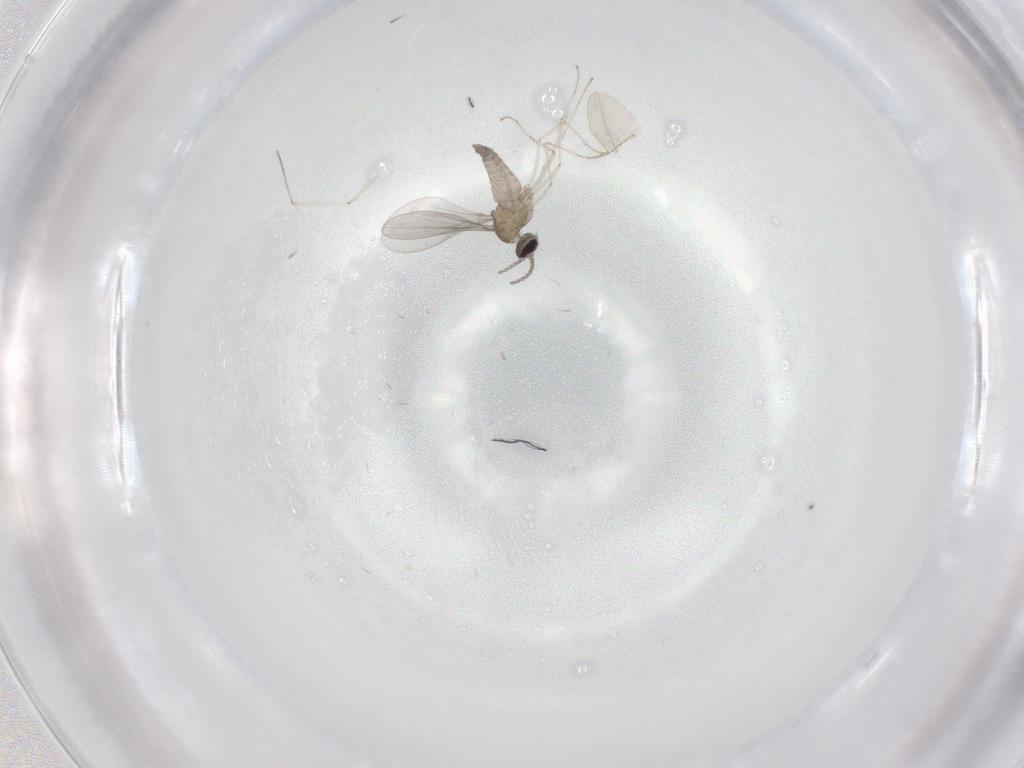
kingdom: Animalia
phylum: Arthropoda
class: Insecta
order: Diptera
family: Cecidomyiidae
